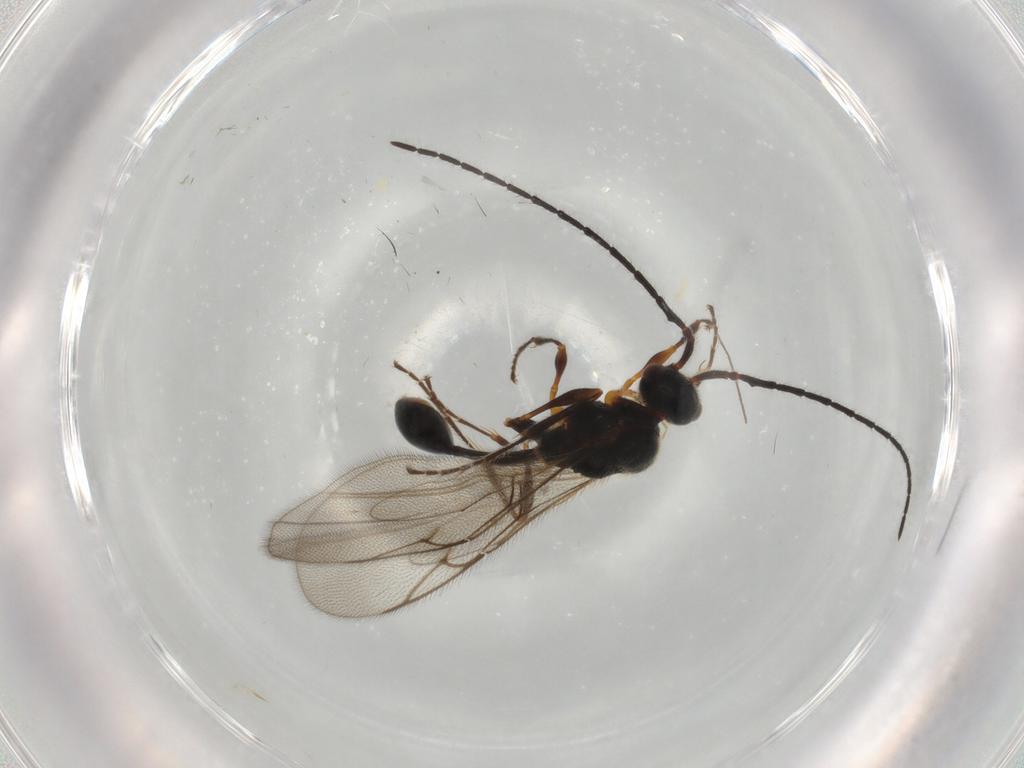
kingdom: Animalia
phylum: Arthropoda
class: Insecta
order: Hymenoptera
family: Diapriidae
